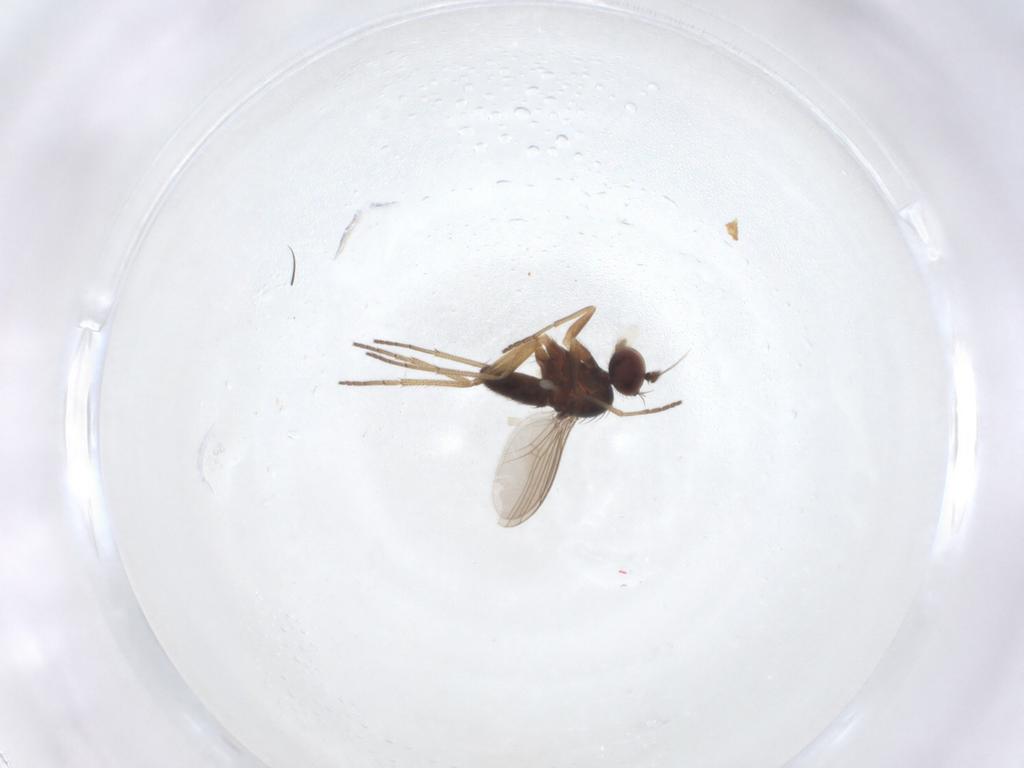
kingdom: Animalia
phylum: Arthropoda
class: Insecta
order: Diptera
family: Dolichopodidae
